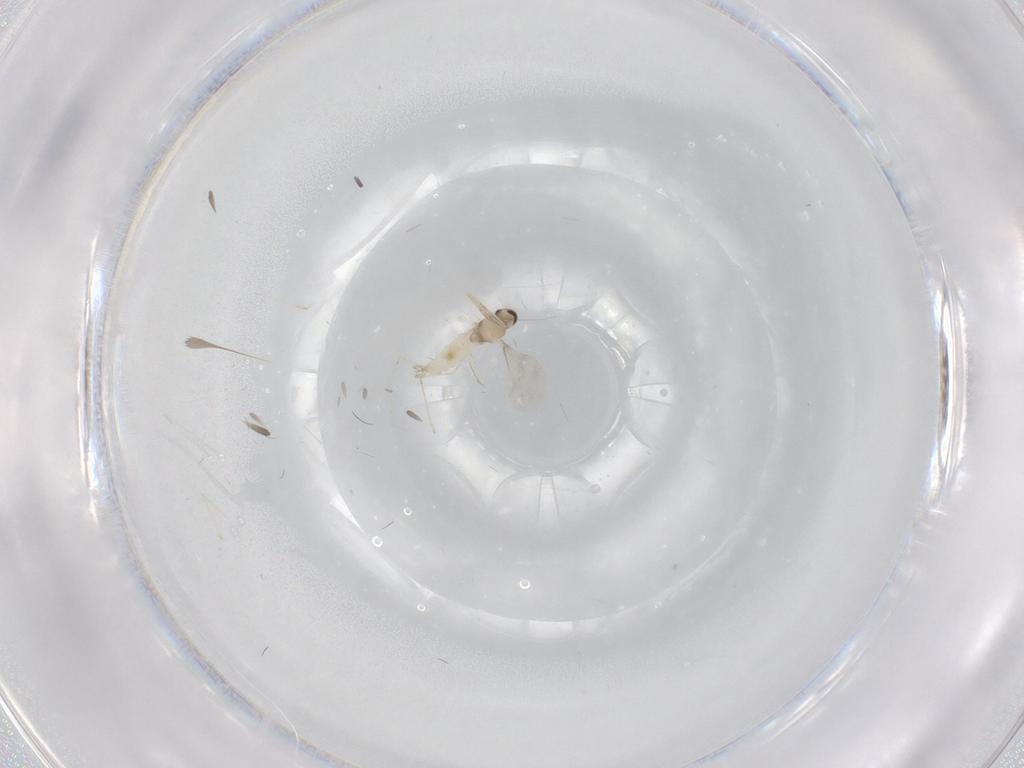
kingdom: Animalia
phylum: Arthropoda
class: Insecta
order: Diptera
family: Cecidomyiidae
